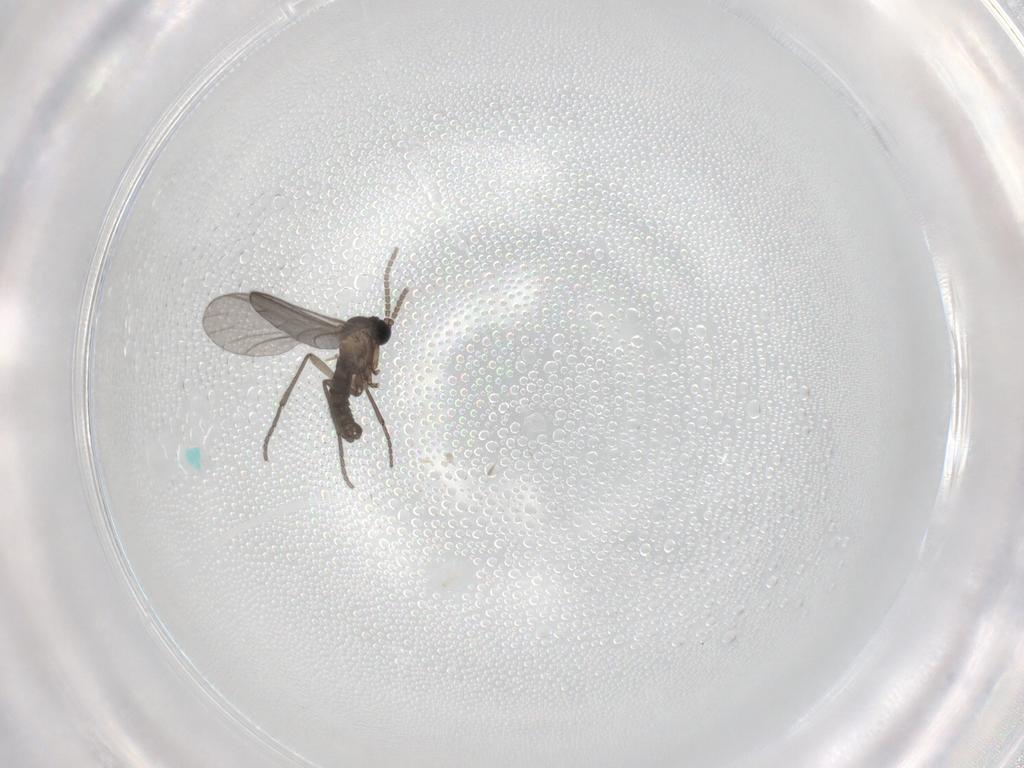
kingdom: Animalia
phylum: Arthropoda
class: Insecta
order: Diptera
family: Sciaridae
